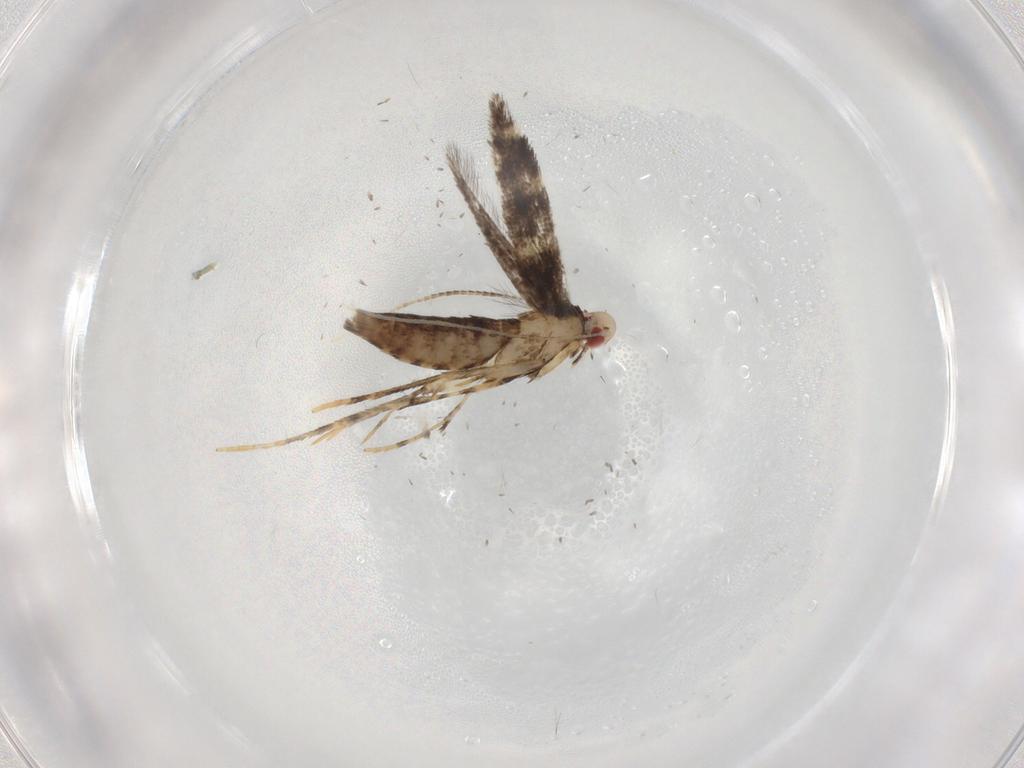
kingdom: Animalia
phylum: Arthropoda
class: Insecta
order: Lepidoptera
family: Gracillariidae
